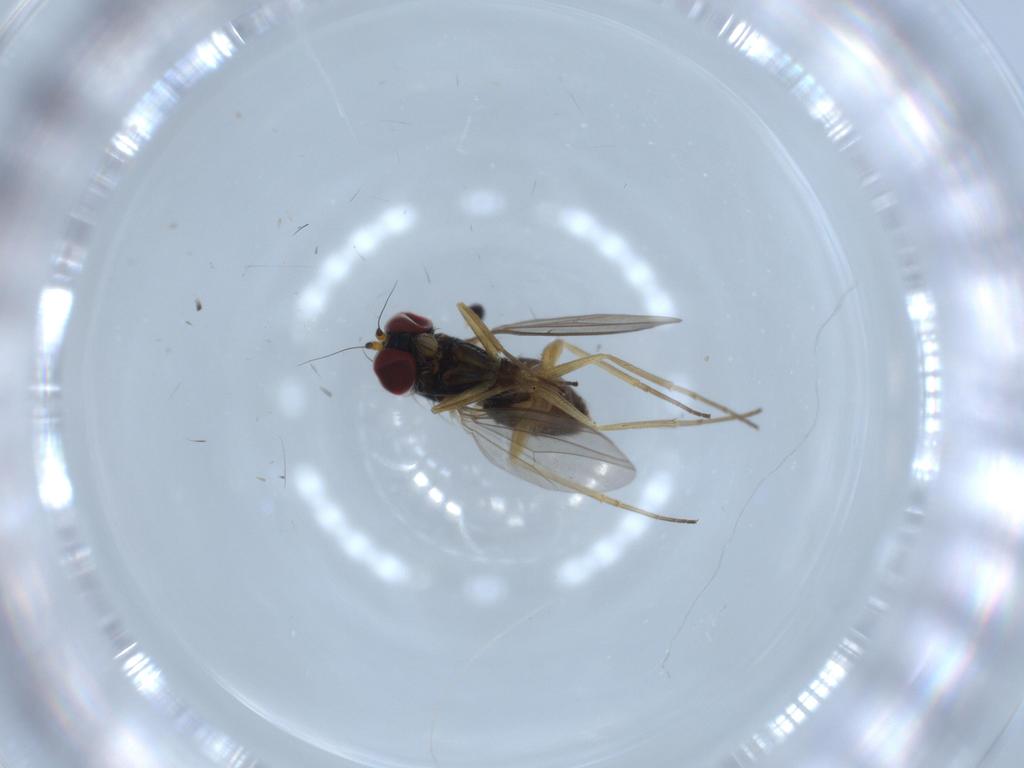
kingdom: Animalia
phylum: Arthropoda
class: Insecta
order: Diptera
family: Dolichopodidae
